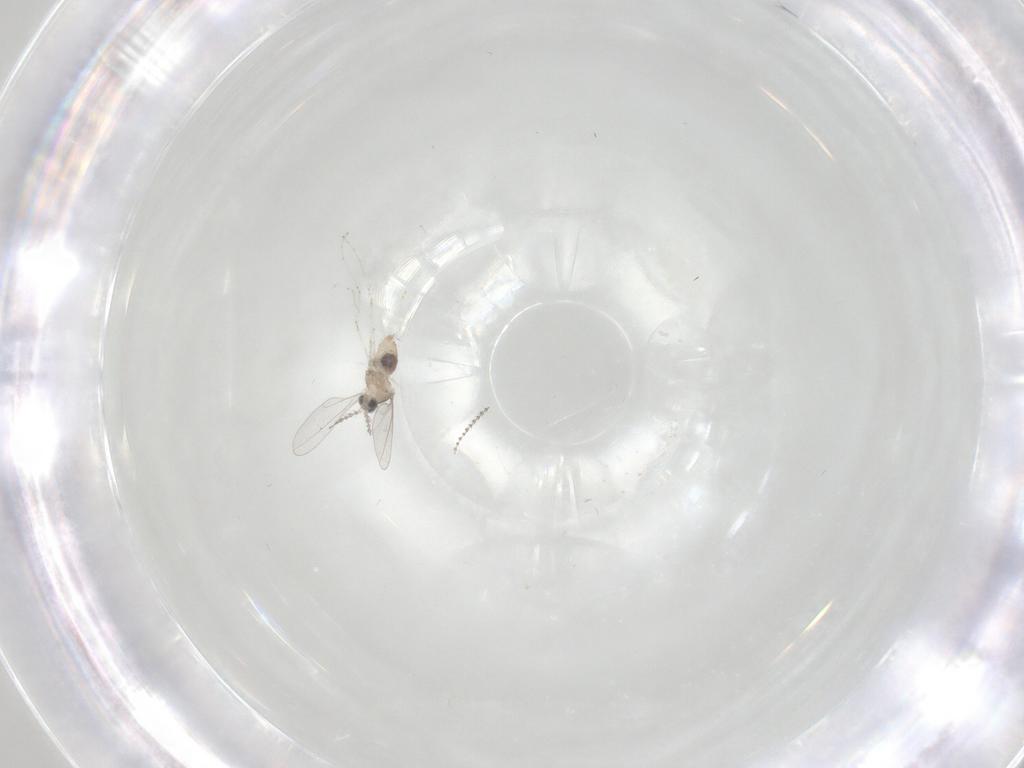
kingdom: Animalia
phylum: Arthropoda
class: Insecta
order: Diptera
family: Cecidomyiidae
